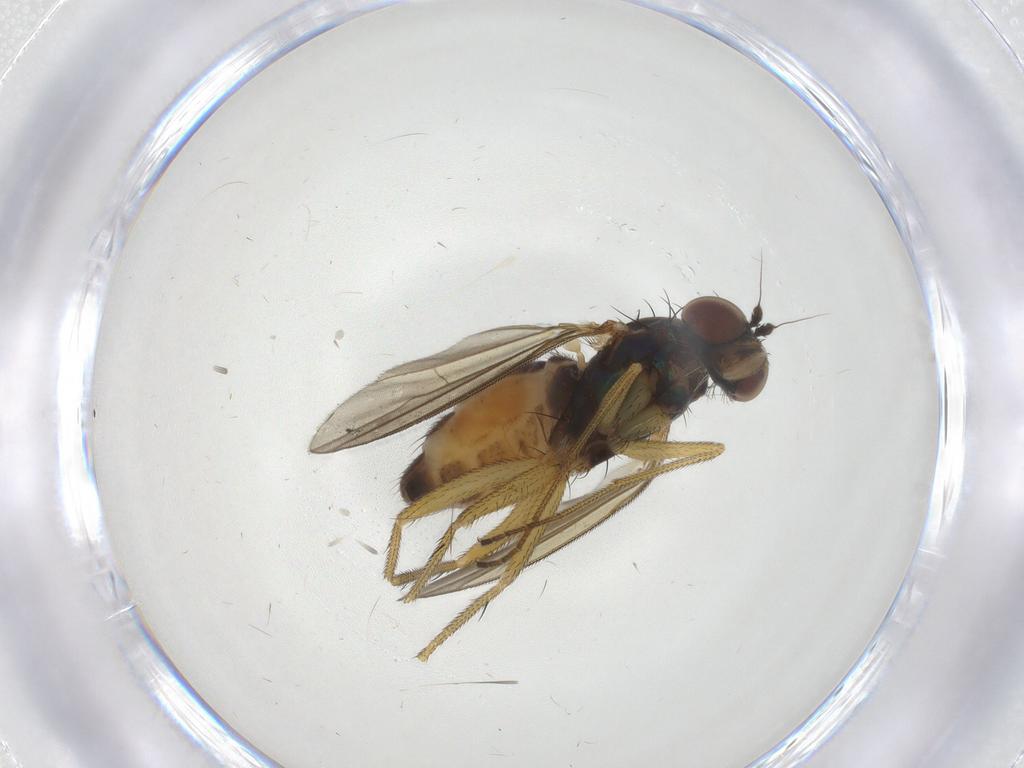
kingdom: Animalia
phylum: Arthropoda
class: Insecta
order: Diptera
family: Dolichopodidae
